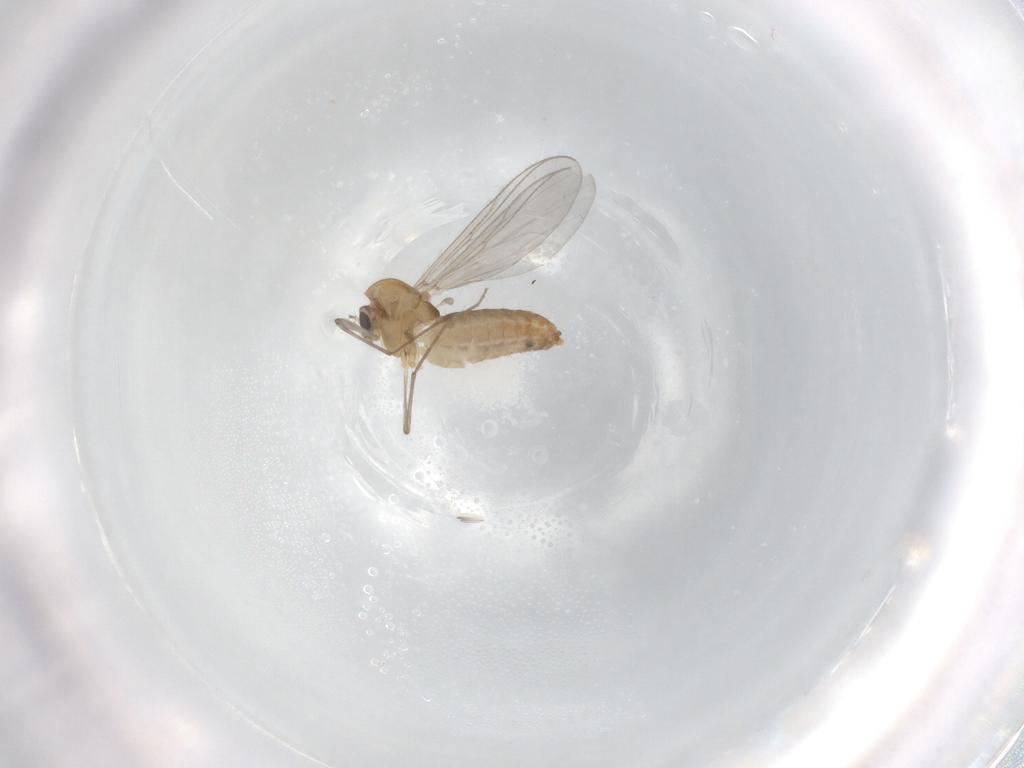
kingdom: Animalia
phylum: Arthropoda
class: Insecta
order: Diptera
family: Chironomidae
